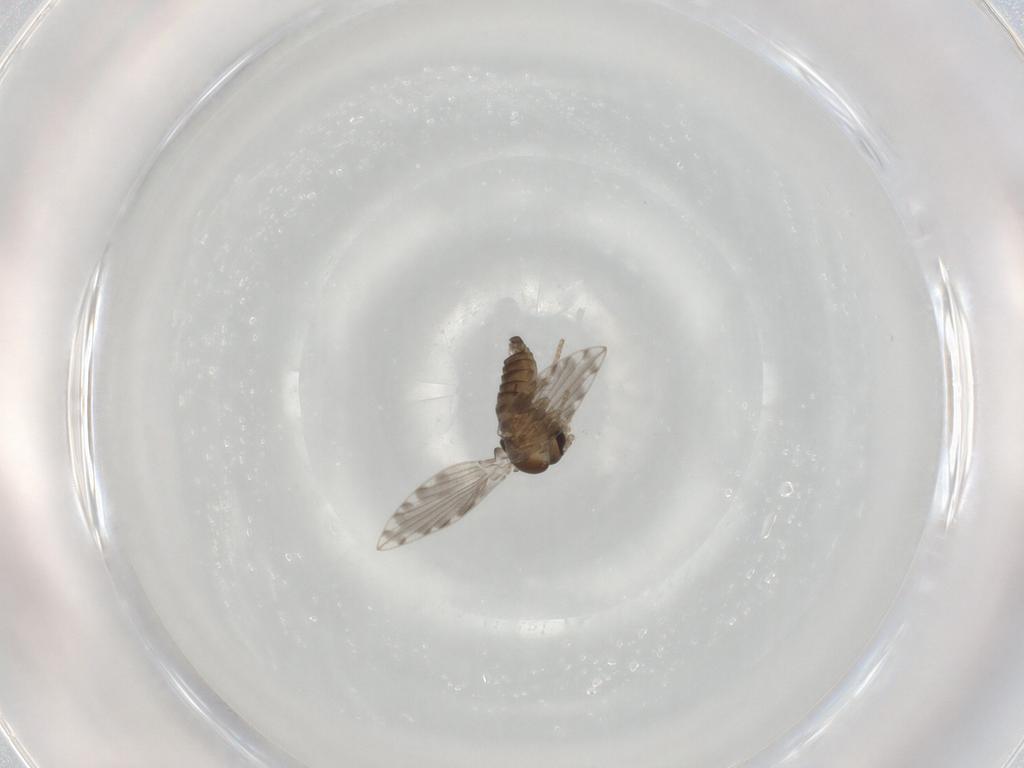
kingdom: Animalia
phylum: Arthropoda
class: Insecta
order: Diptera
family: Psychodidae
